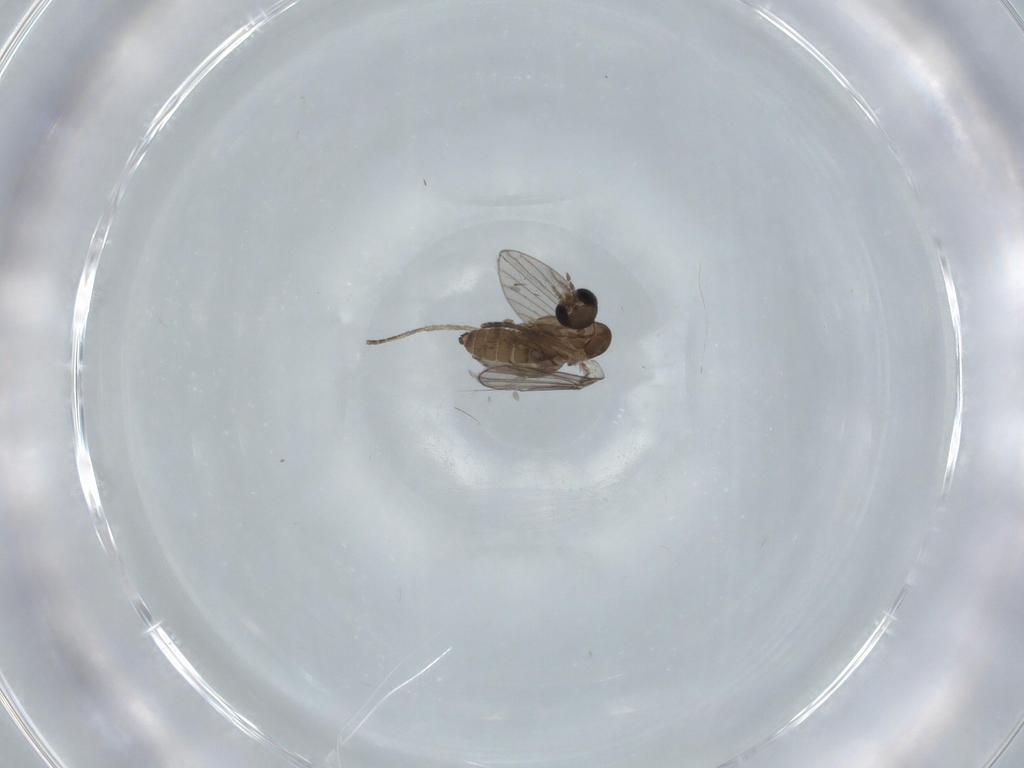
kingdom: Animalia
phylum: Arthropoda
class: Insecta
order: Diptera
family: Psychodidae
